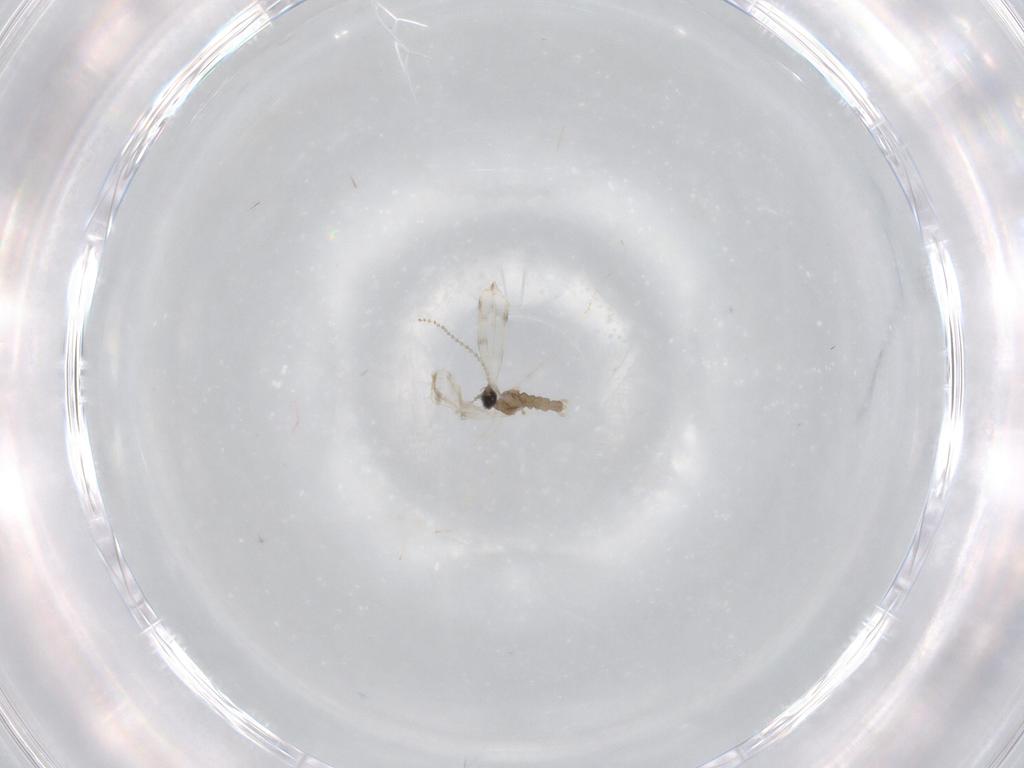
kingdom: Animalia
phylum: Arthropoda
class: Insecta
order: Diptera
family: Cecidomyiidae
